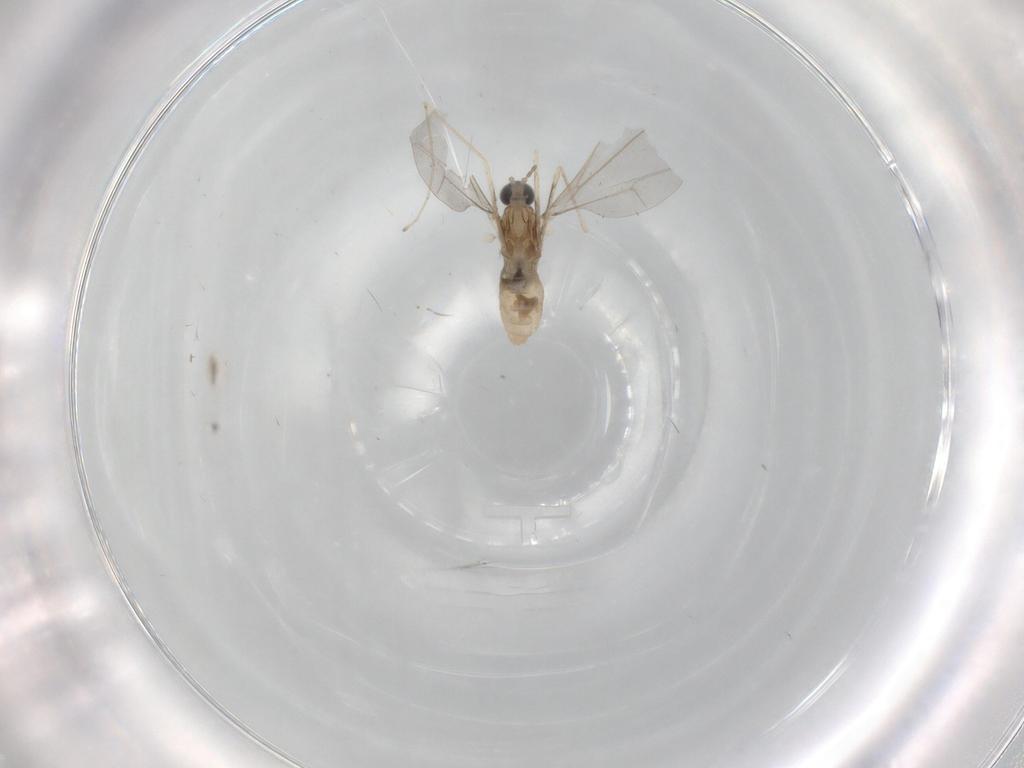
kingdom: Animalia
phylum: Arthropoda
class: Insecta
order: Diptera
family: Cecidomyiidae
